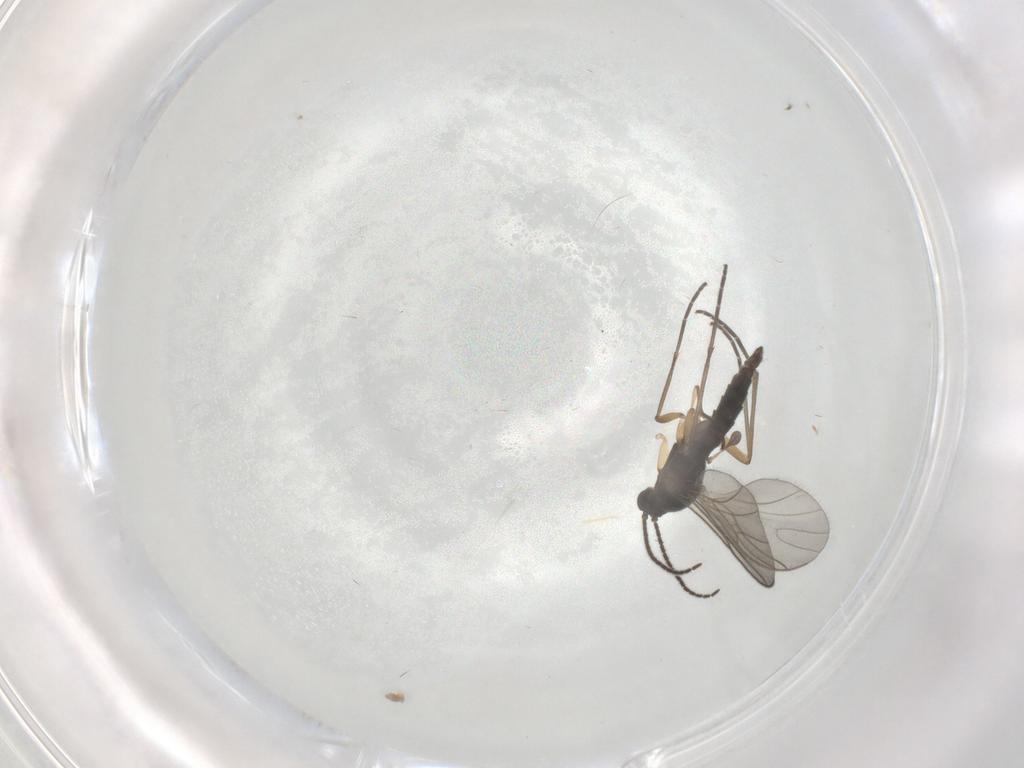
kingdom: Animalia
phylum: Arthropoda
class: Insecta
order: Diptera
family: Sciaridae
